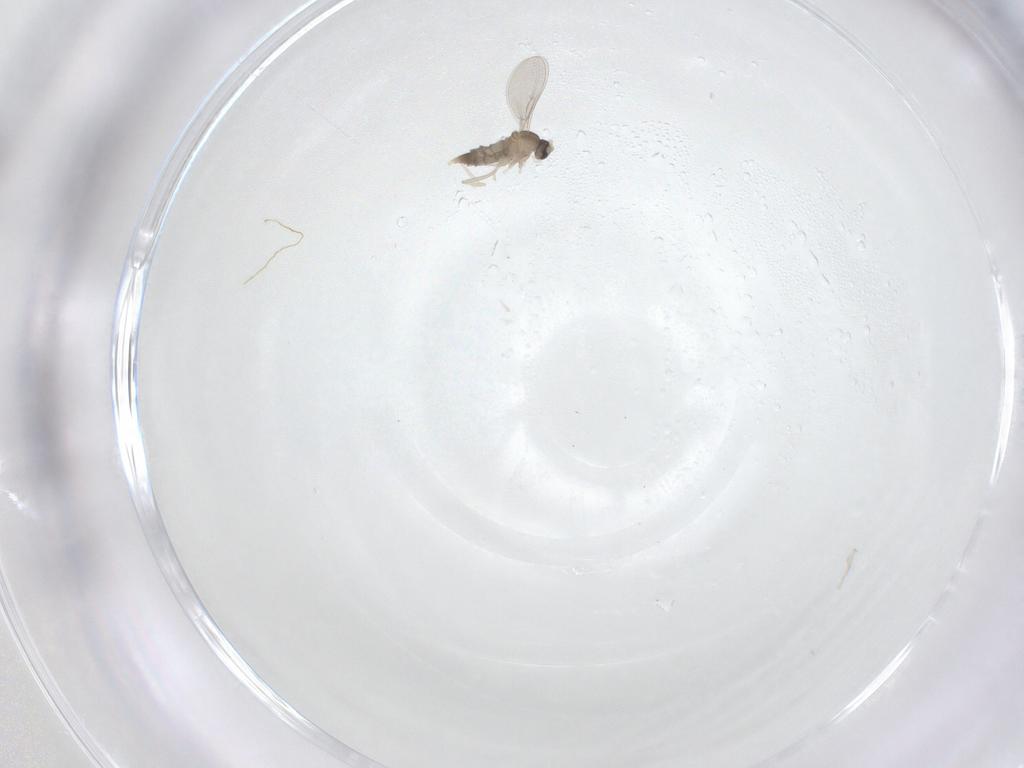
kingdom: Animalia
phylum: Arthropoda
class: Insecta
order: Diptera
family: Cecidomyiidae
